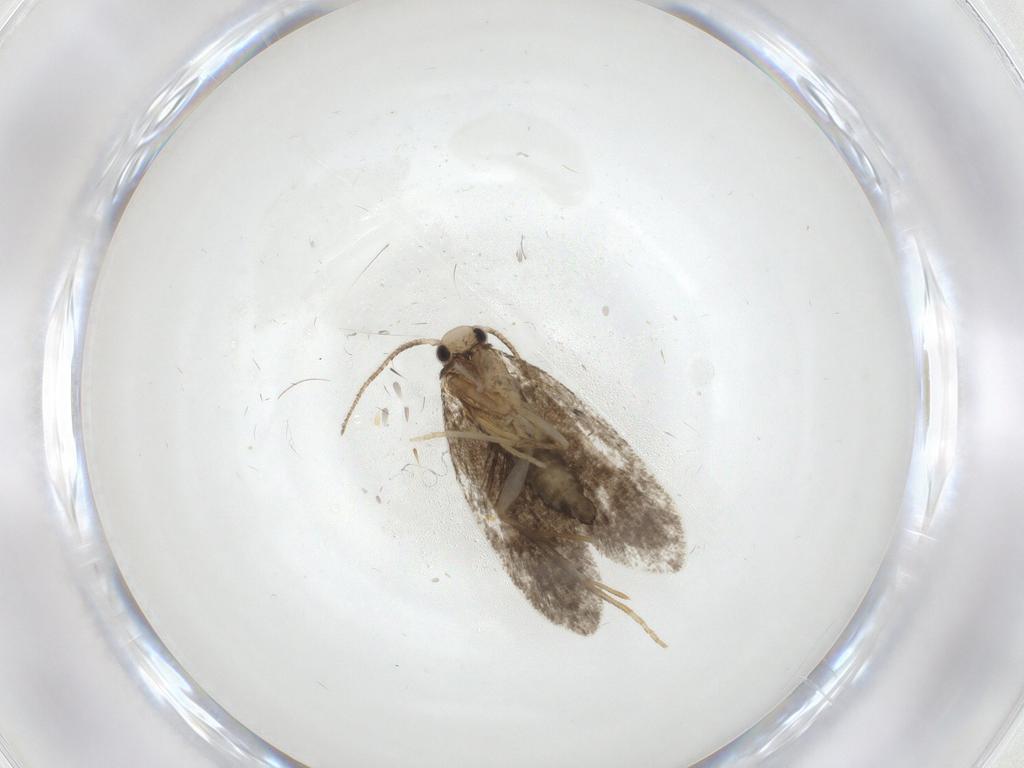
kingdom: Animalia
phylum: Arthropoda
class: Insecta
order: Lepidoptera
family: Psychidae
